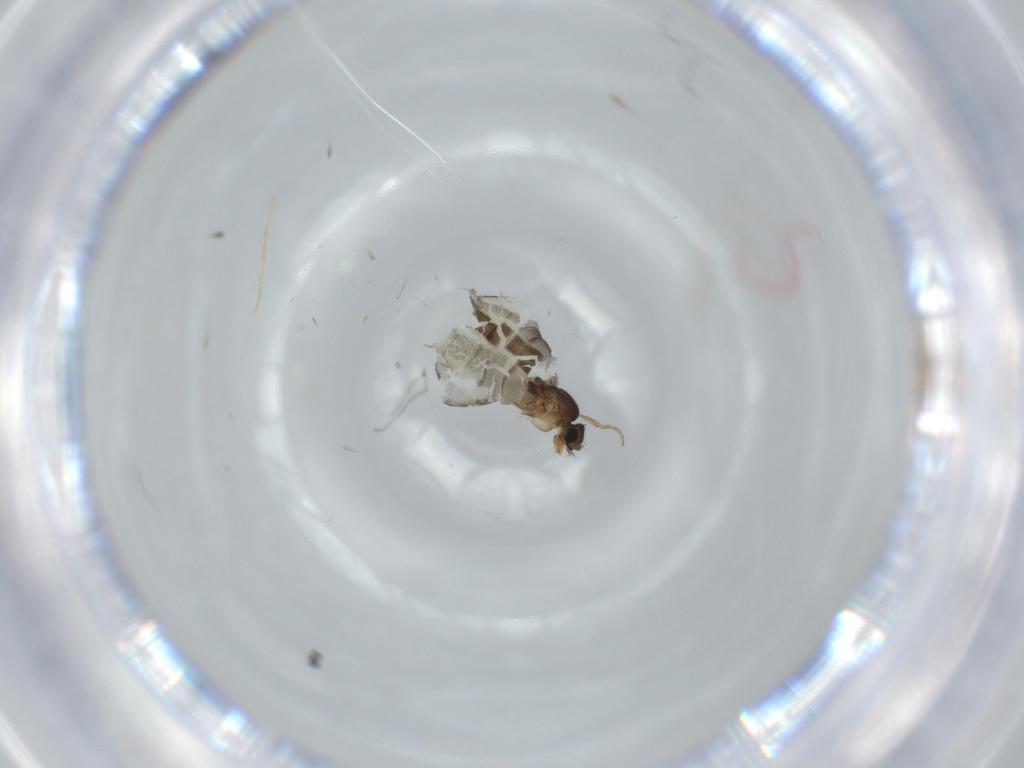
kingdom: Animalia
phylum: Arthropoda
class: Insecta
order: Diptera
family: Phoridae
